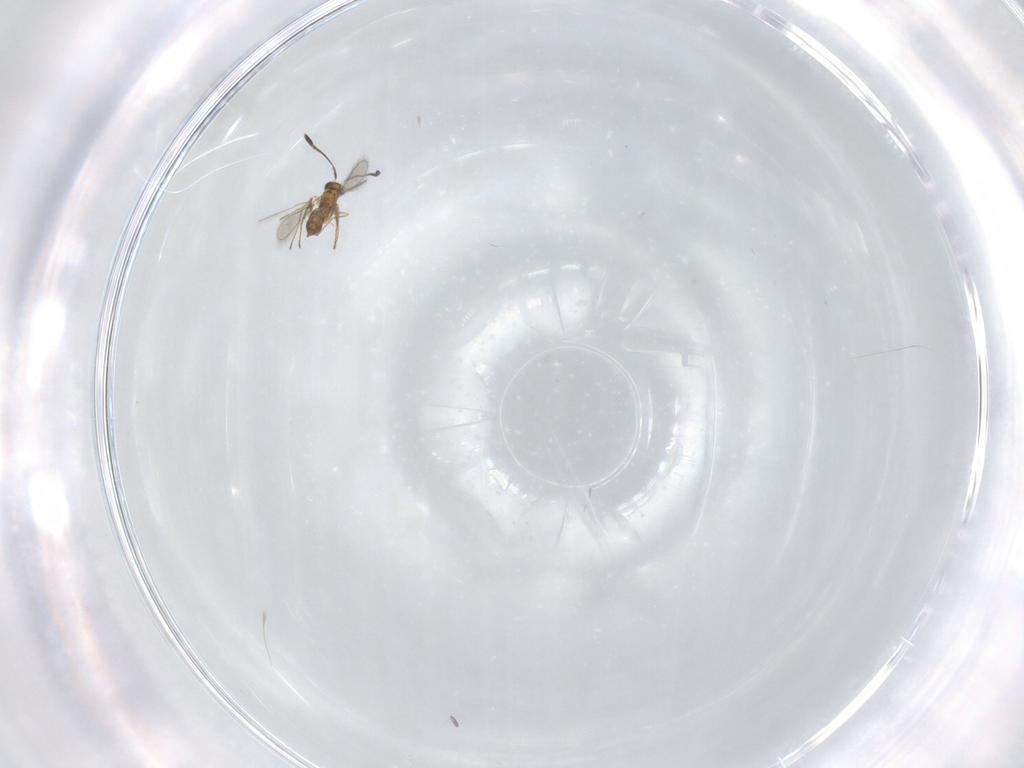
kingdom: Animalia
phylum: Arthropoda
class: Insecta
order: Hymenoptera
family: Mymaridae
